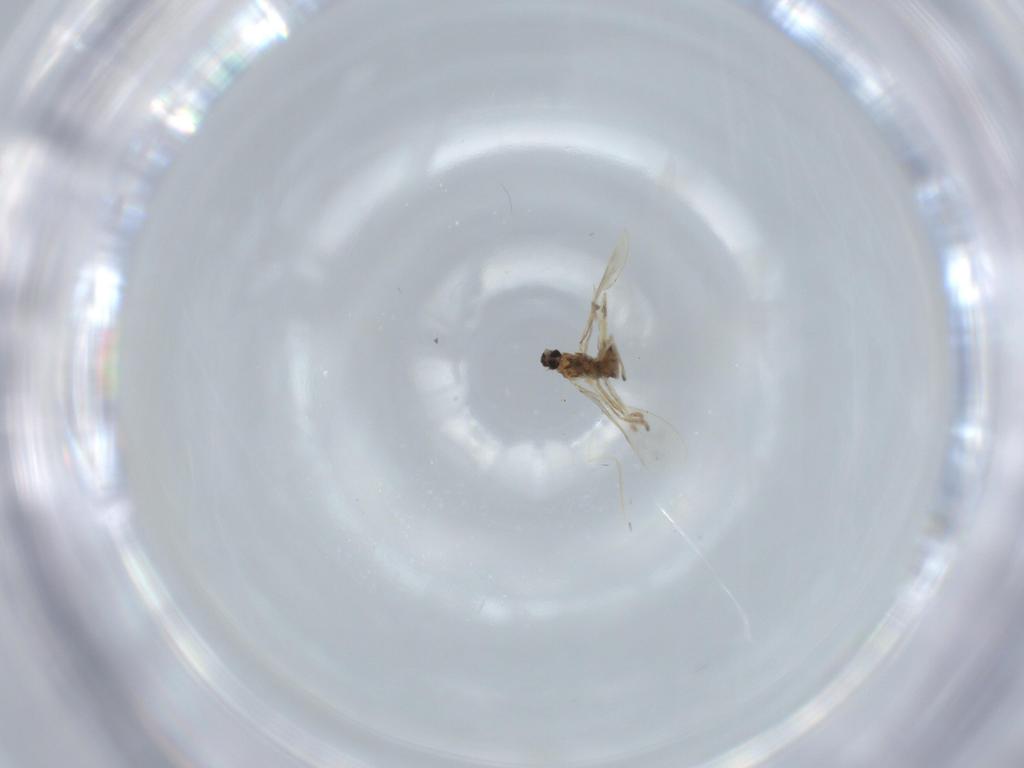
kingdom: Animalia
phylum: Arthropoda
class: Insecta
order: Diptera
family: Cecidomyiidae
